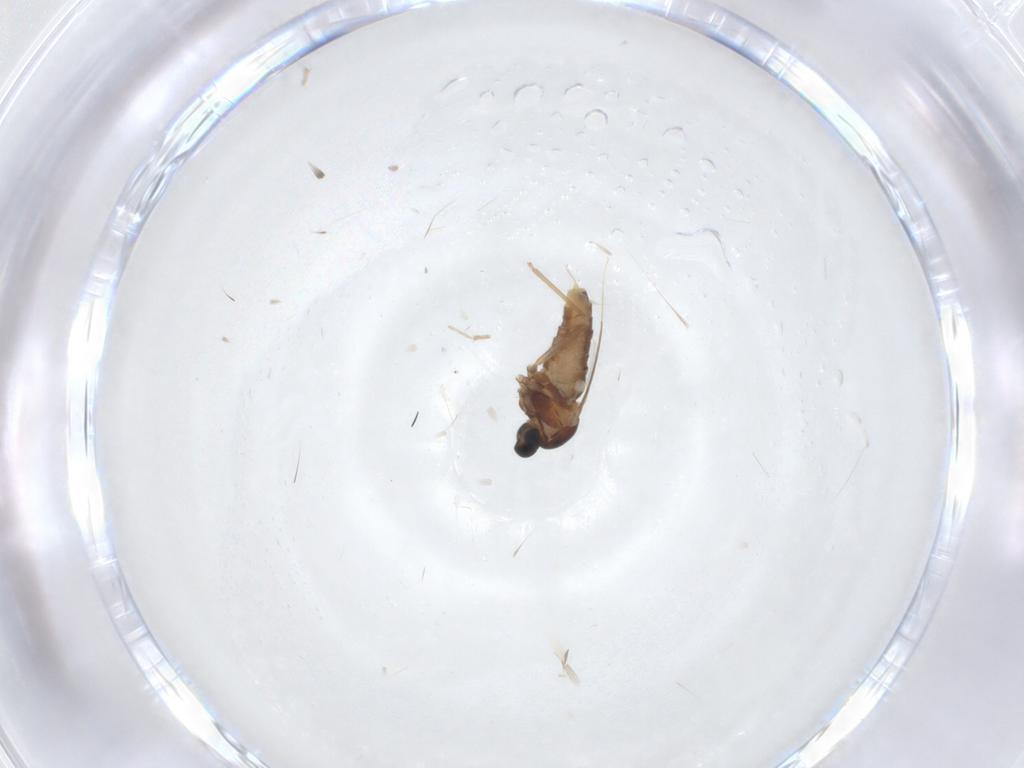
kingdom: Animalia
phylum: Arthropoda
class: Insecta
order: Diptera
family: Cecidomyiidae
